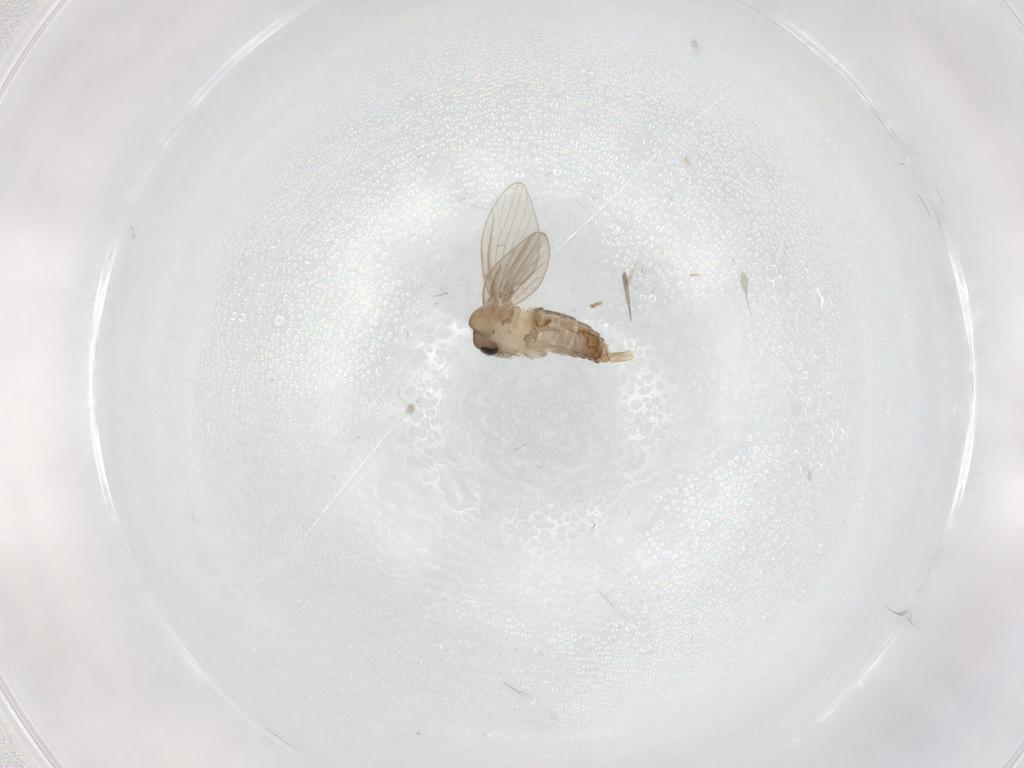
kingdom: Animalia
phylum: Arthropoda
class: Insecta
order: Diptera
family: Psychodidae
